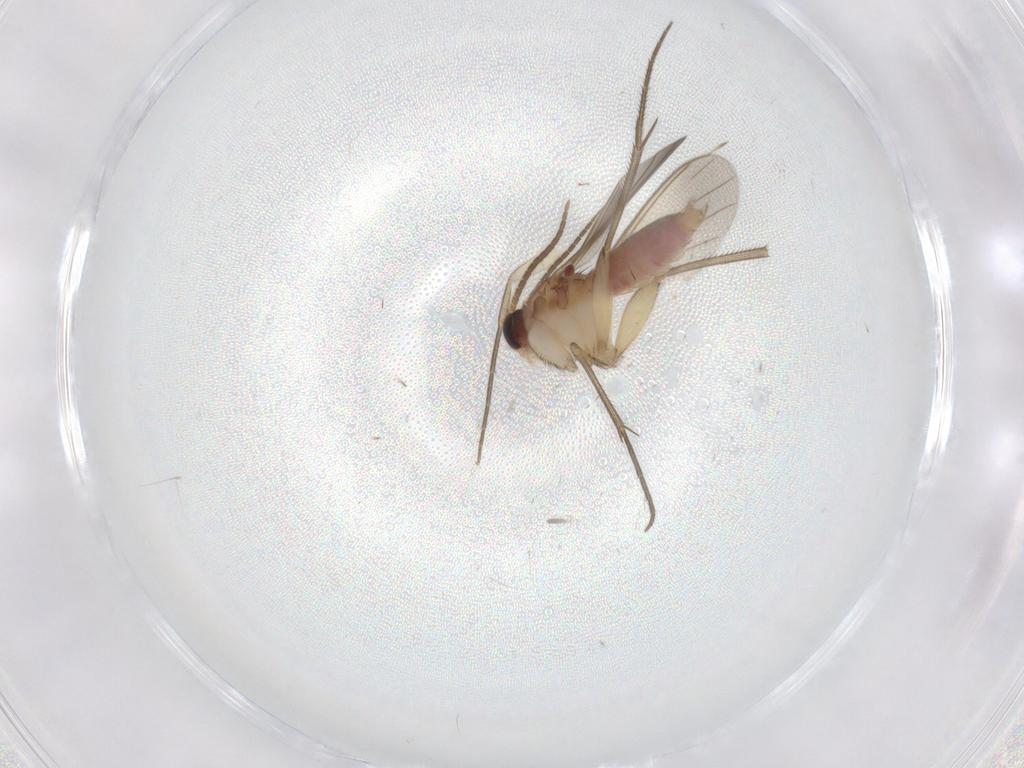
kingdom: Animalia
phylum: Arthropoda
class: Insecta
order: Diptera
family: Mycetophilidae
